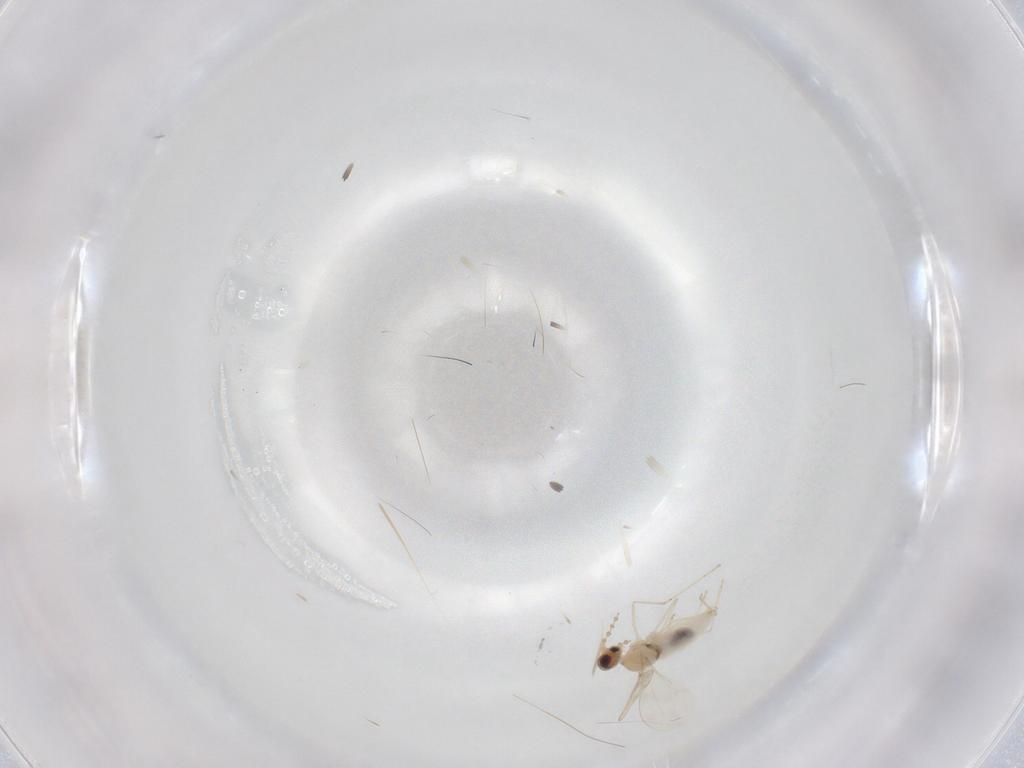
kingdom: Animalia
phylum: Arthropoda
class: Insecta
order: Diptera
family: Cecidomyiidae
